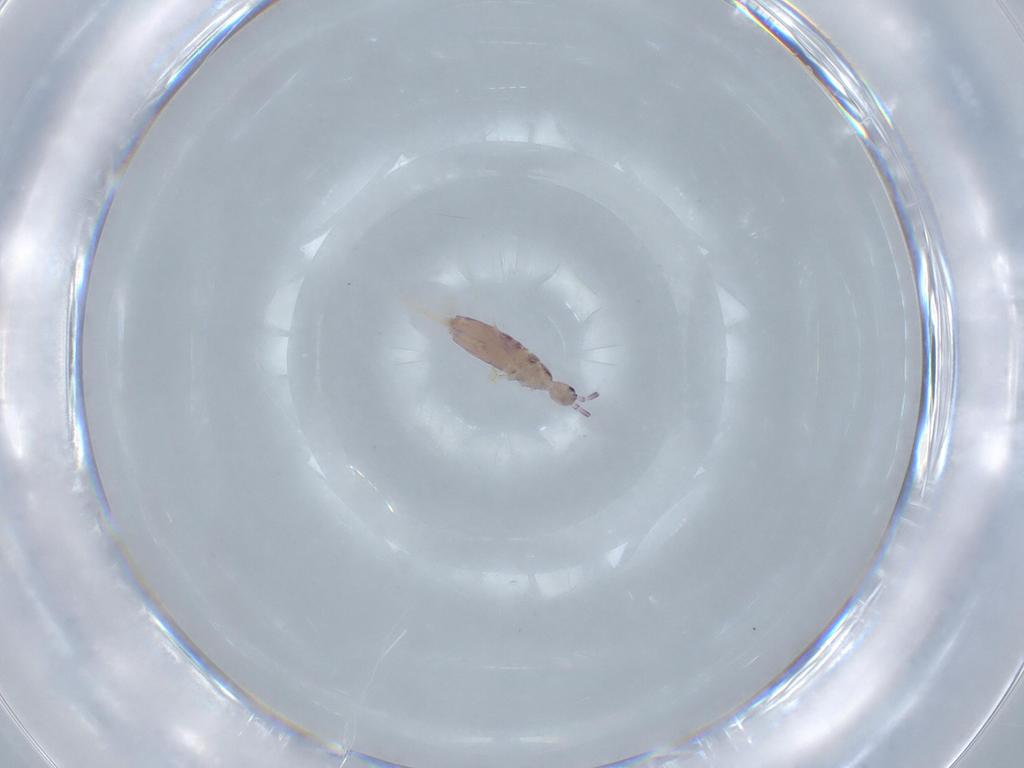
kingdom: Animalia
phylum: Arthropoda
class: Collembola
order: Poduromorpha
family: Hypogastruridae
